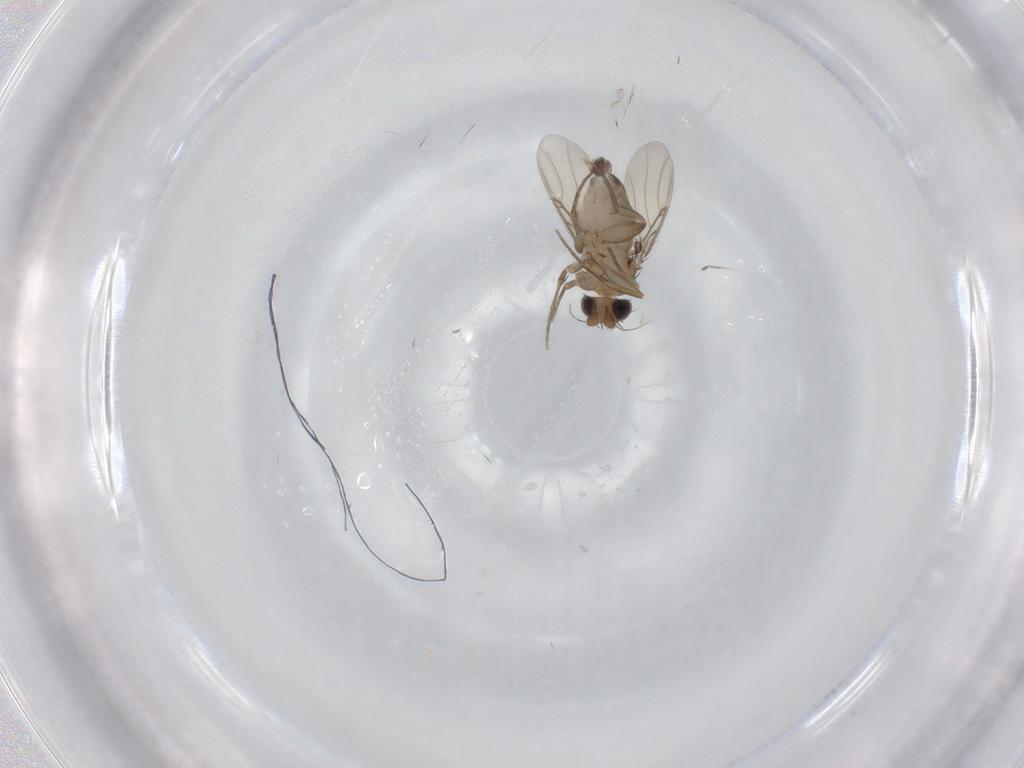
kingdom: Animalia
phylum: Arthropoda
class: Insecta
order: Diptera
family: Phoridae
